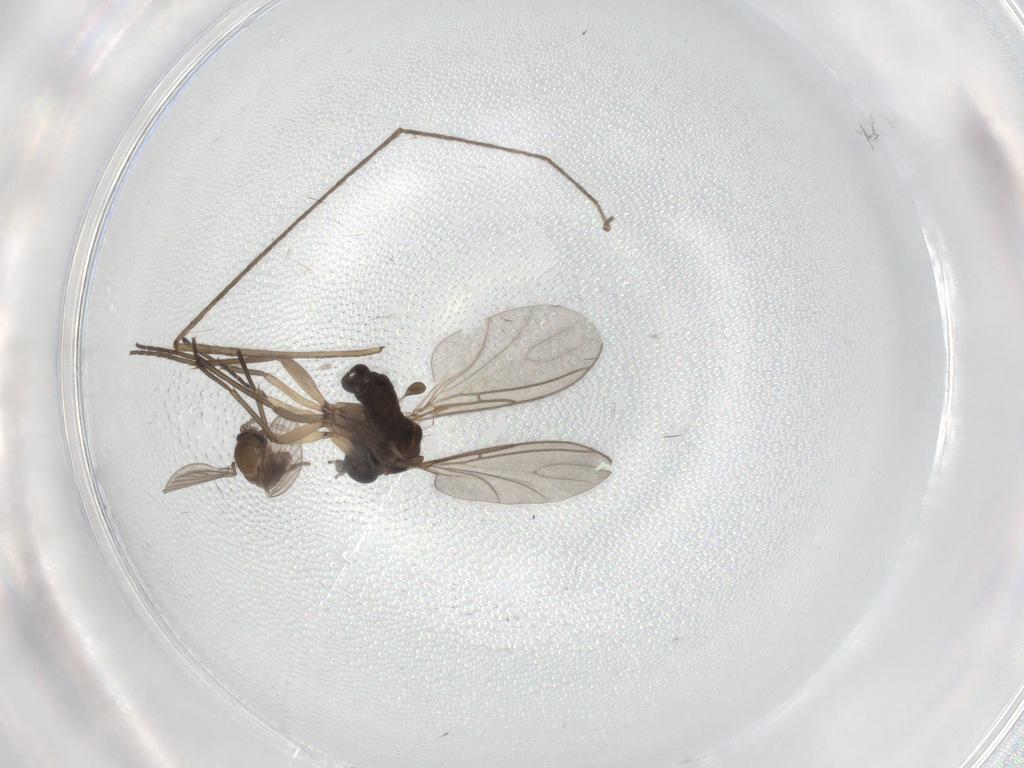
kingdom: Animalia
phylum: Arthropoda
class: Insecta
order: Diptera
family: Sciaridae
